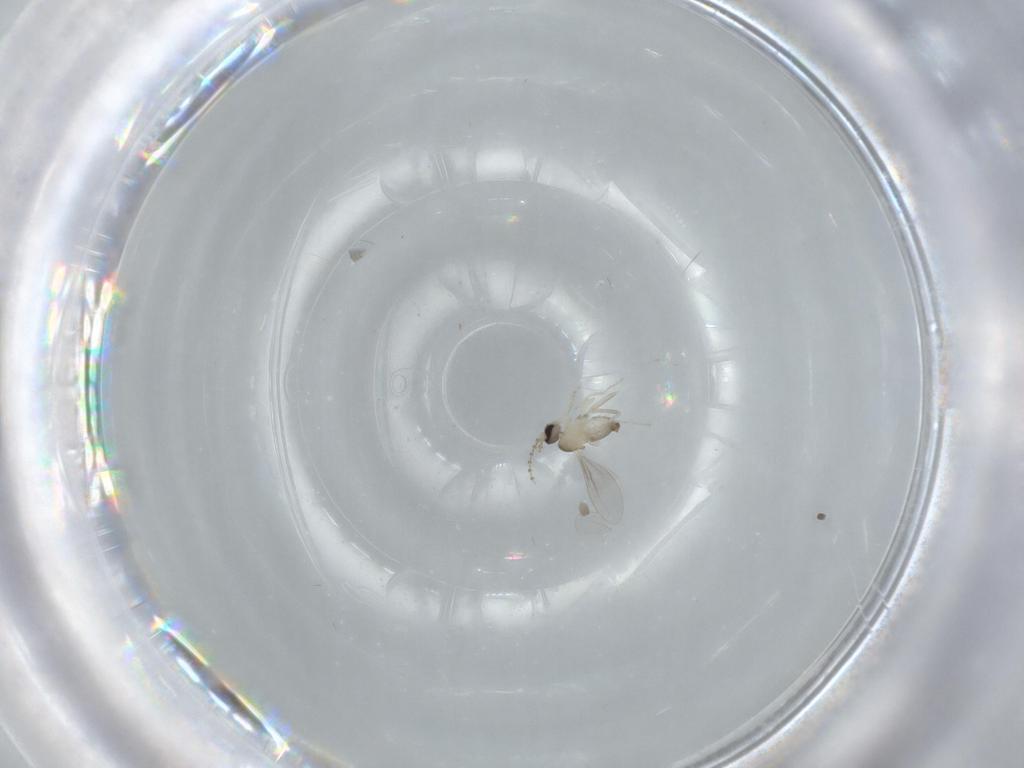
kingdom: Animalia
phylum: Arthropoda
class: Insecta
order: Diptera
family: Cecidomyiidae
